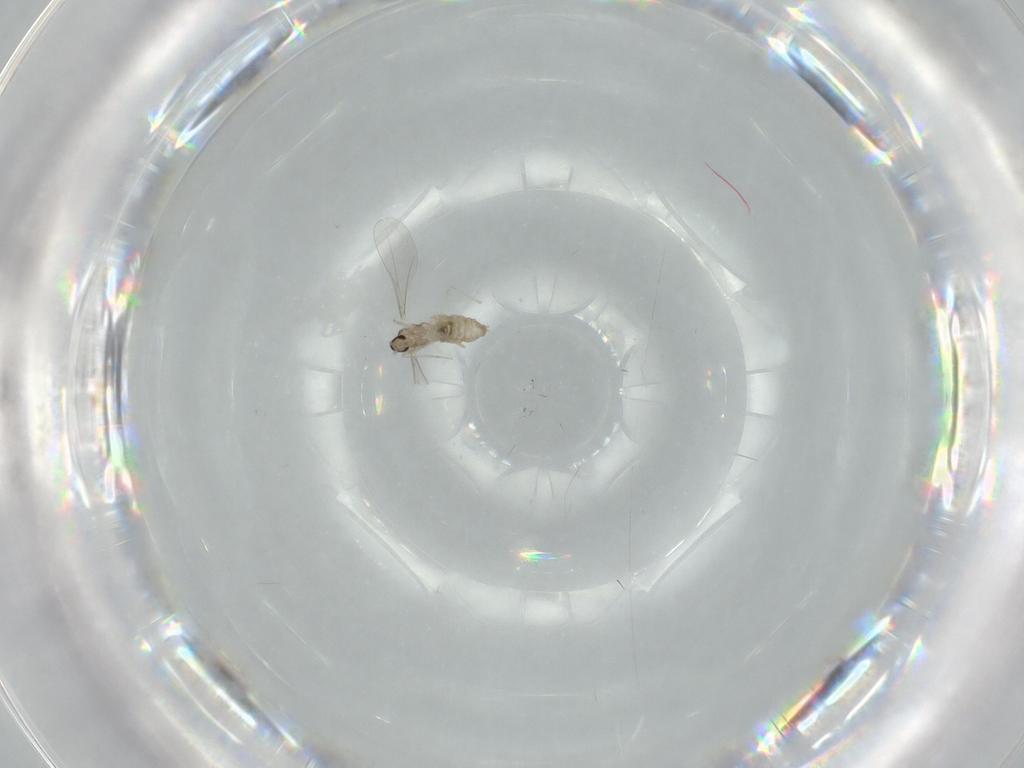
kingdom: Animalia
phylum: Arthropoda
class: Insecta
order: Diptera
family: Cecidomyiidae
